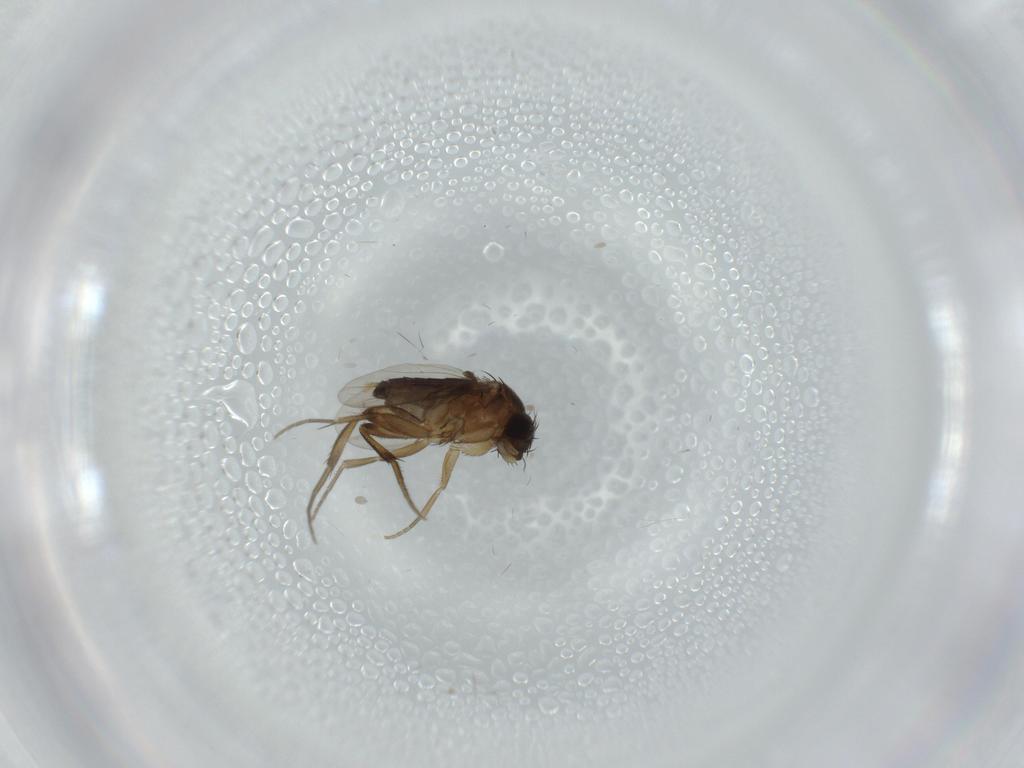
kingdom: Animalia
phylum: Arthropoda
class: Insecta
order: Diptera
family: Phoridae
